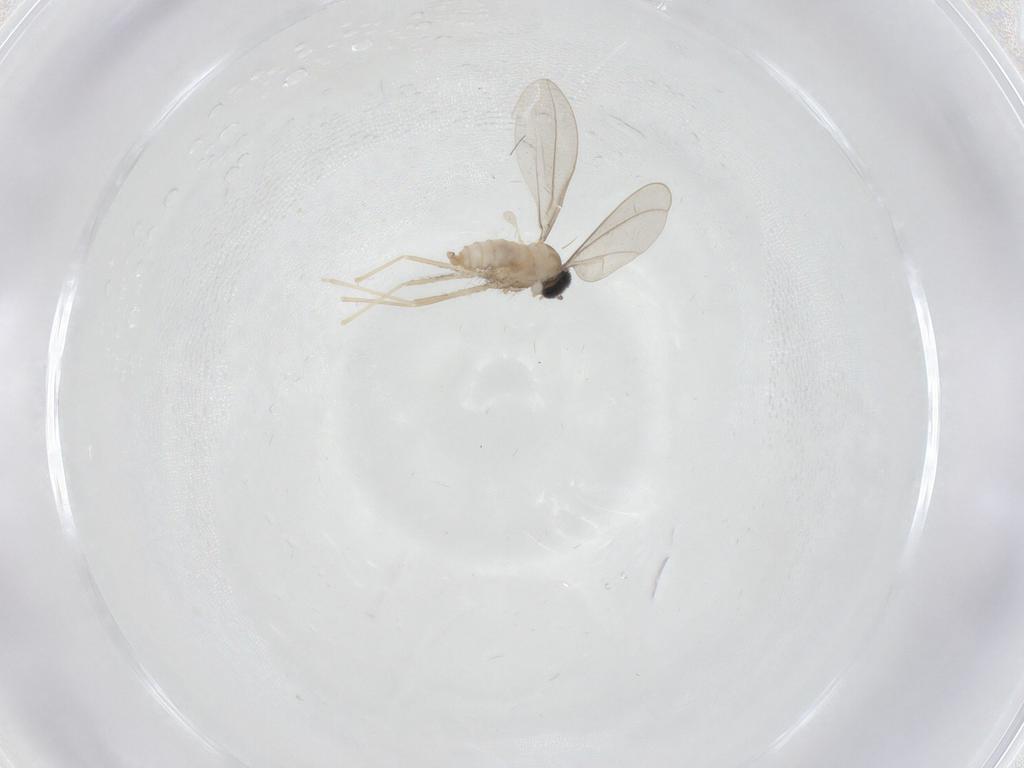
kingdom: Animalia
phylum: Arthropoda
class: Insecta
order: Diptera
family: Cecidomyiidae
